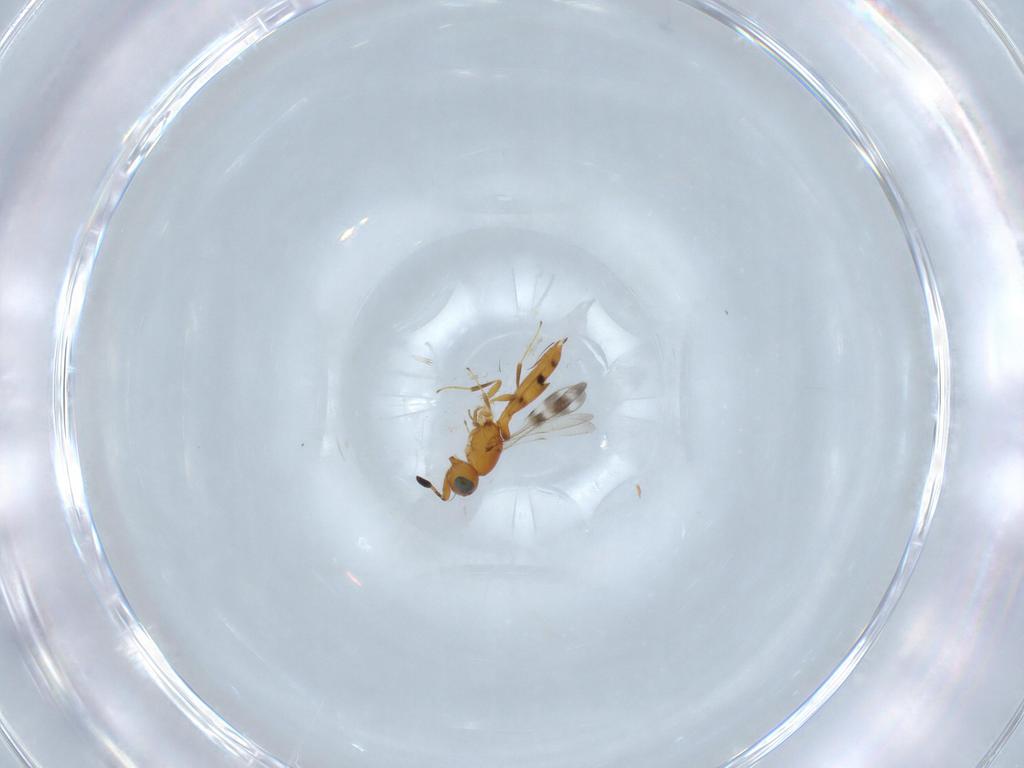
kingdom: Animalia
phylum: Arthropoda
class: Insecta
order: Hymenoptera
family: Scelionidae
